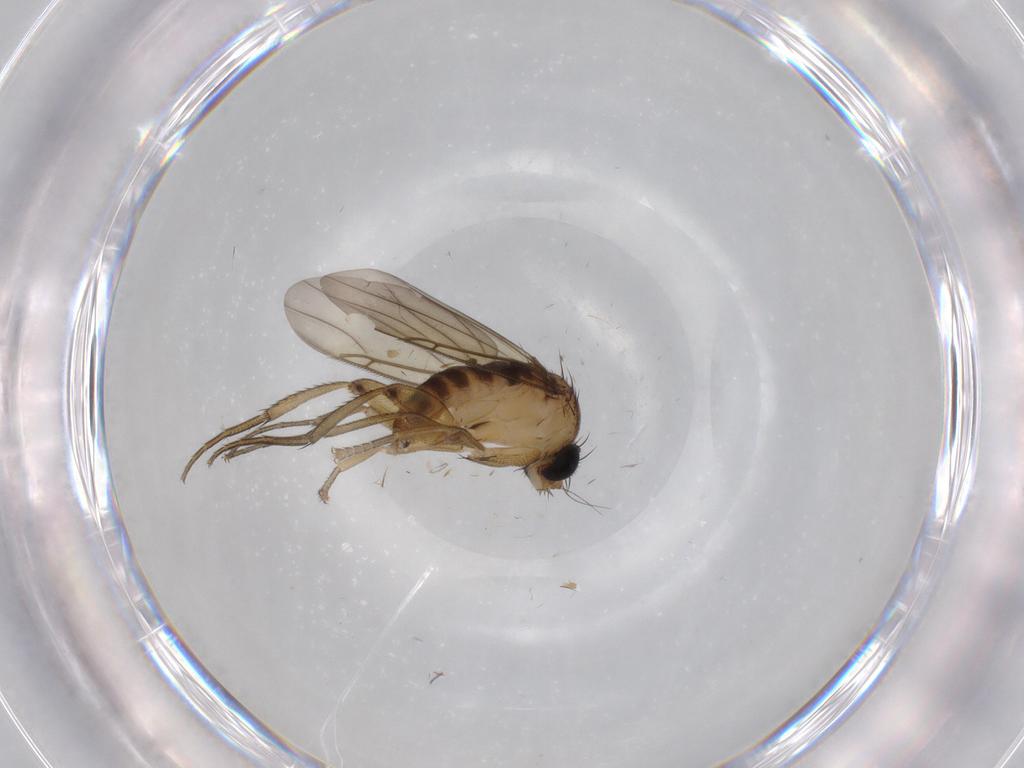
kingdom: Animalia
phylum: Arthropoda
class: Insecta
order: Diptera
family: Phoridae
